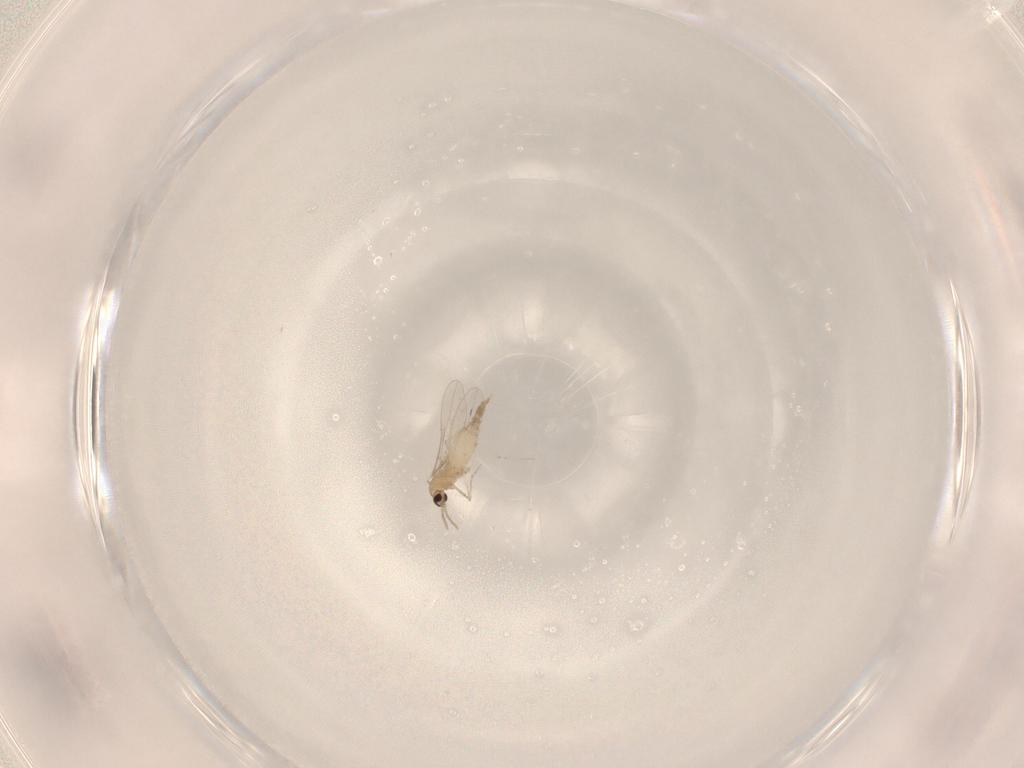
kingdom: Animalia
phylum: Arthropoda
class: Insecta
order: Diptera
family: Cecidomyiidae
